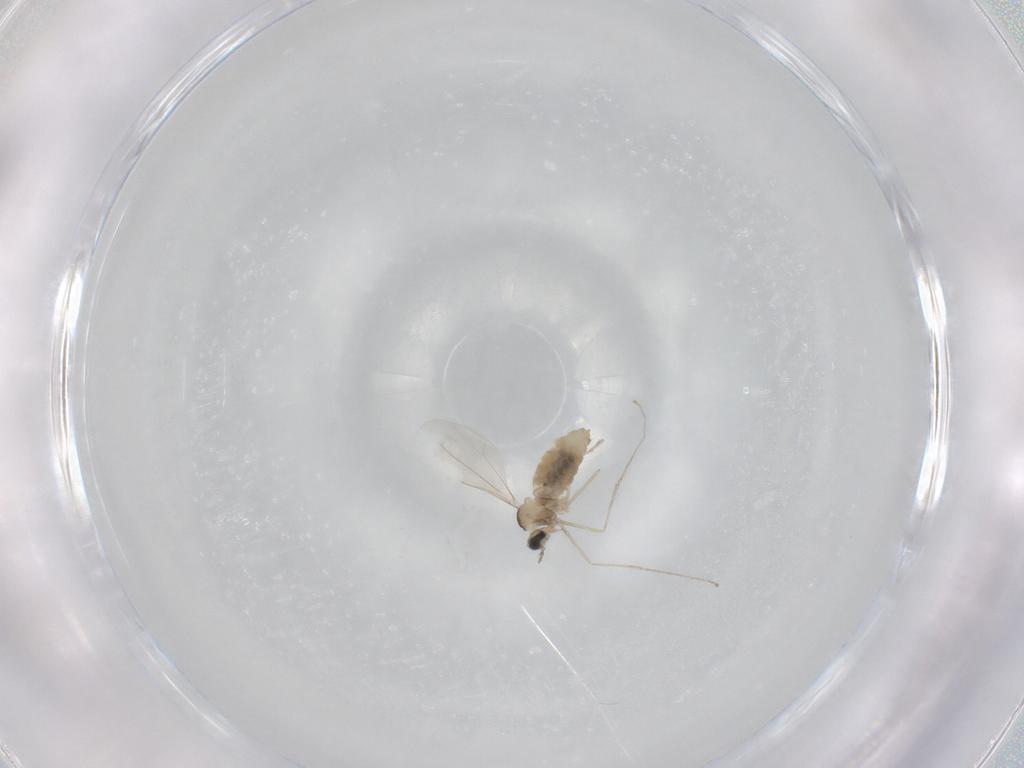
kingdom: Animalia
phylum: Arthropoda
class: Insecta
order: Diptera
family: Cecidomyiidae
